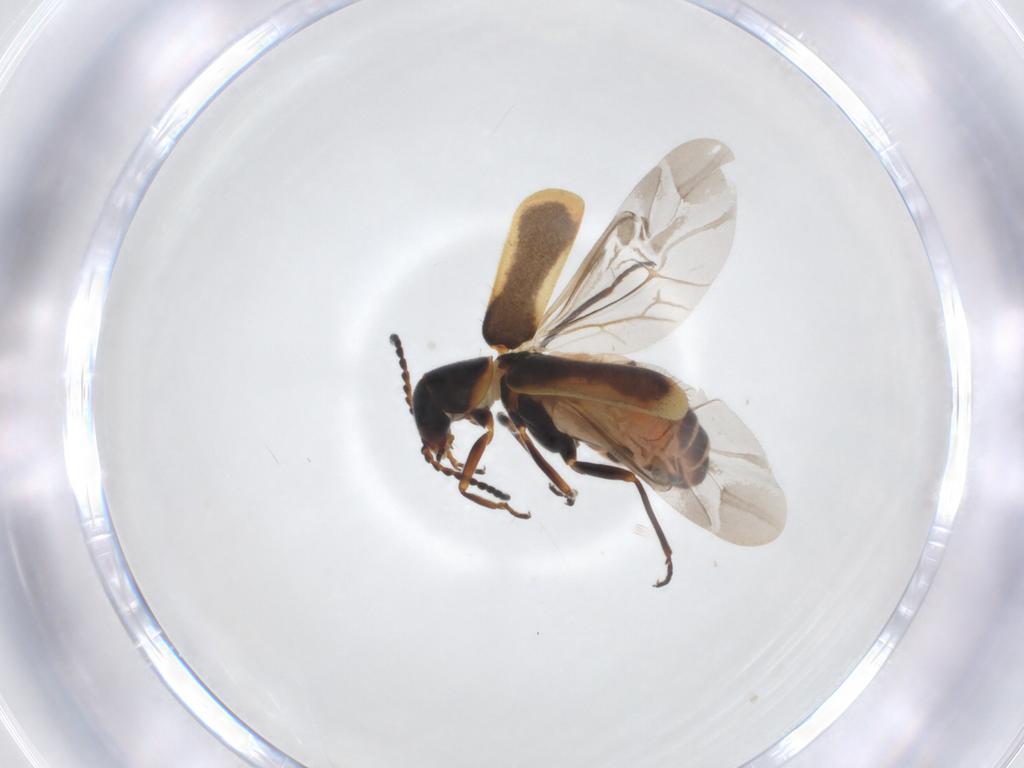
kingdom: Animalia
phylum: Arthropoda
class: Insecta
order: Coleoptera
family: Melyridae
